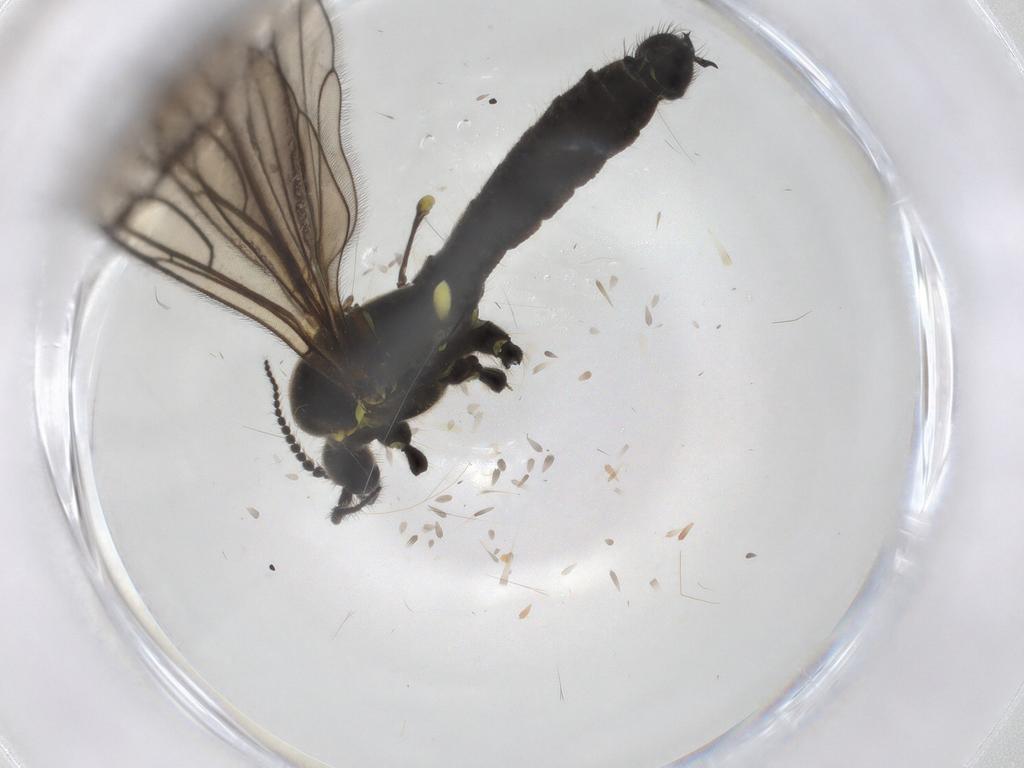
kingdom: Animalia
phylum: Arthropoda
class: Insecta
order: Diptera
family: Limoniidae
